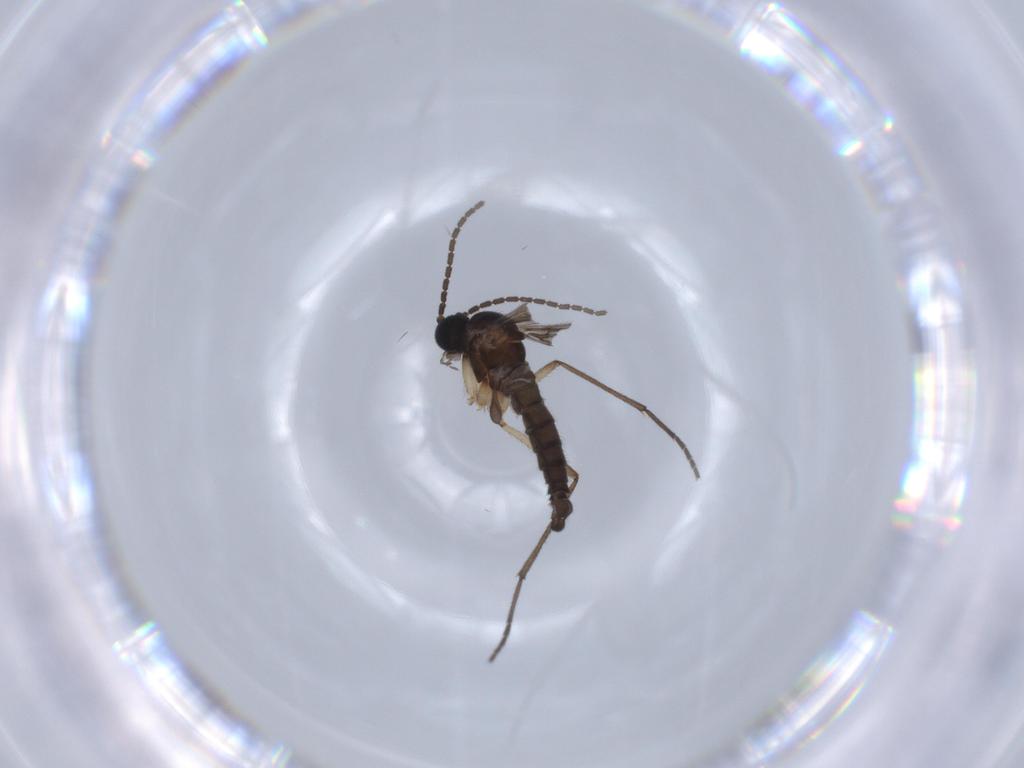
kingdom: Animalia
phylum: Arthropoda
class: Insecta
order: Diptera
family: Sciaridae
